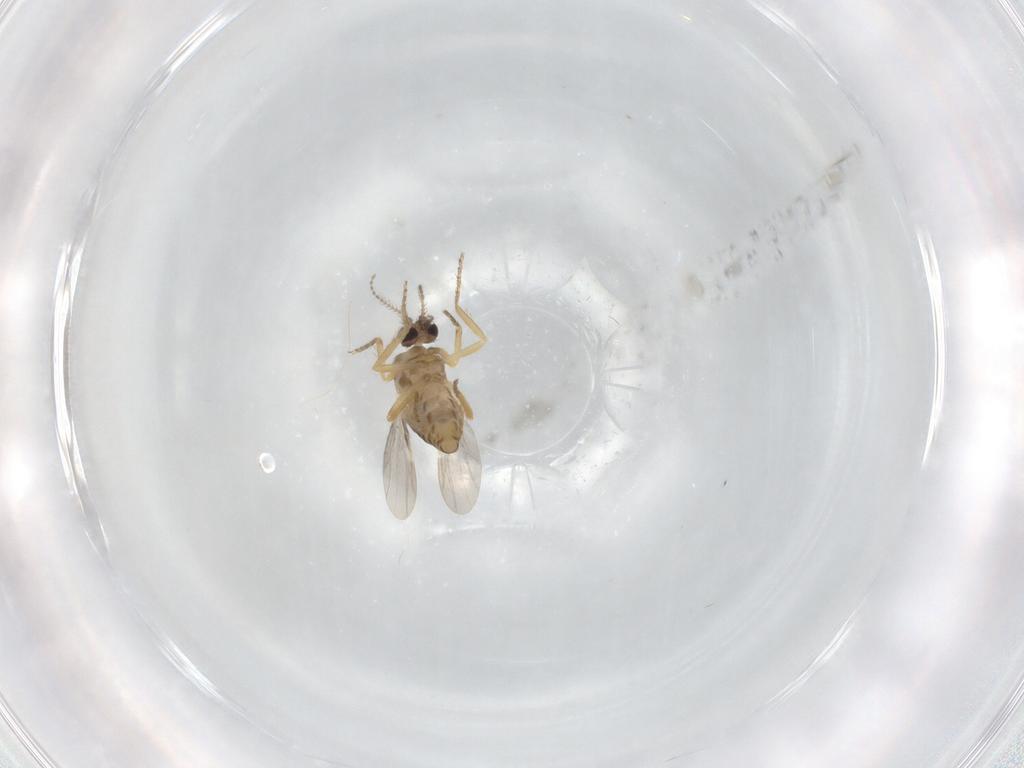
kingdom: Animalia
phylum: Arthropoda
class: Insecta
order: Diptera
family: Ceratopogonidae
